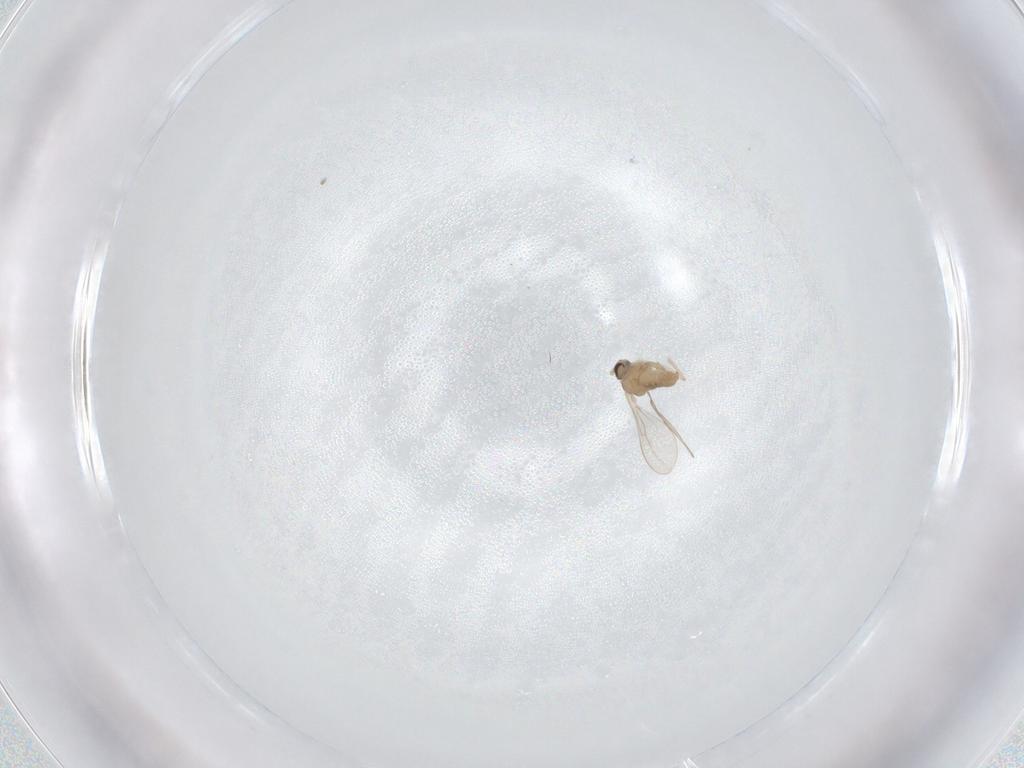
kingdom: Animalia
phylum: Arthropoda
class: Insecta
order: Diptera
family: Cecidomyiidae
